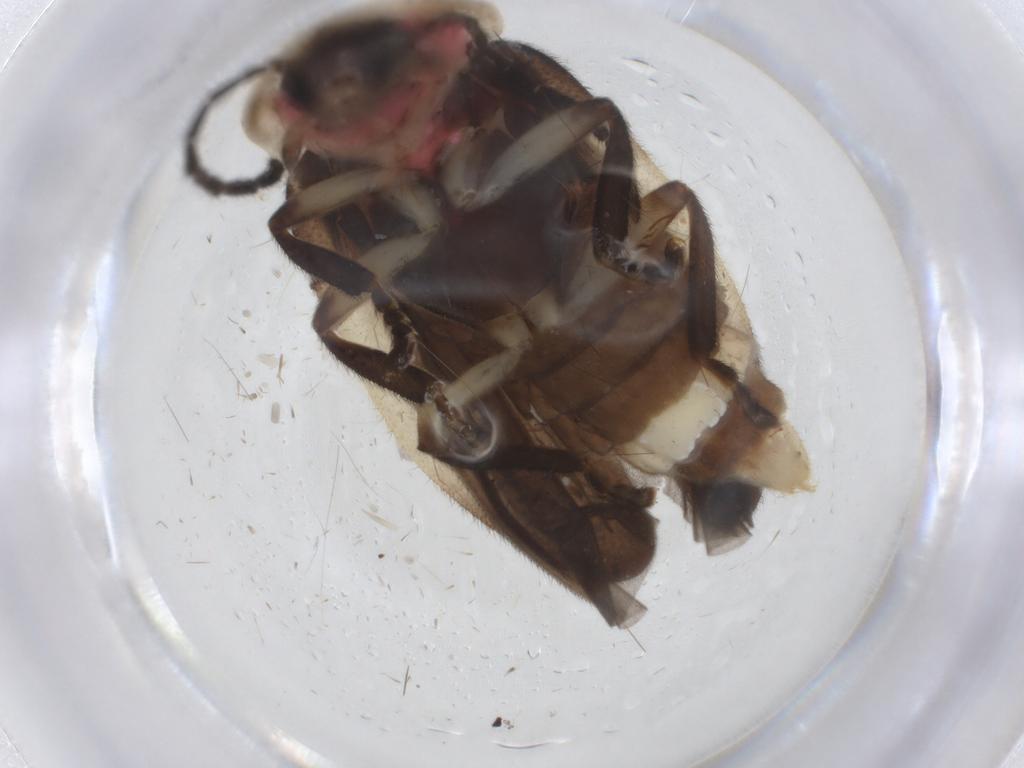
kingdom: Animalia
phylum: Arthropoda
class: Insecta
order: Coleoptera
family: Lampyridae
